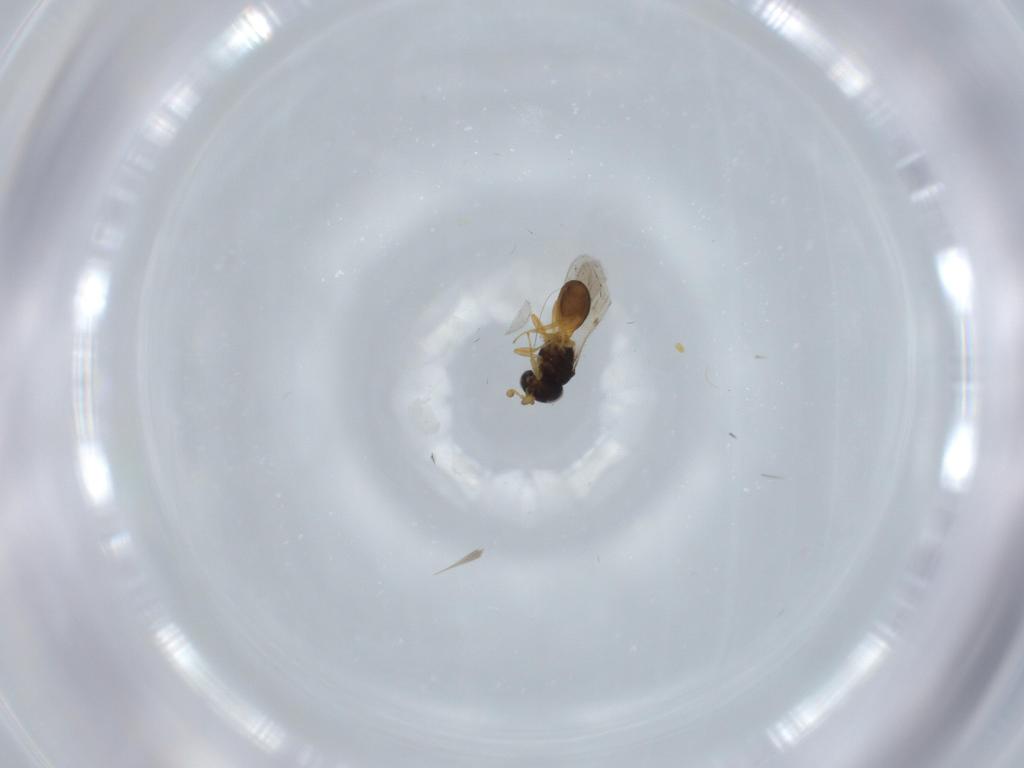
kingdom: Animalia
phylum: Arthropoda
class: Insecta
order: Hymenoptera
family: Scelionidae
